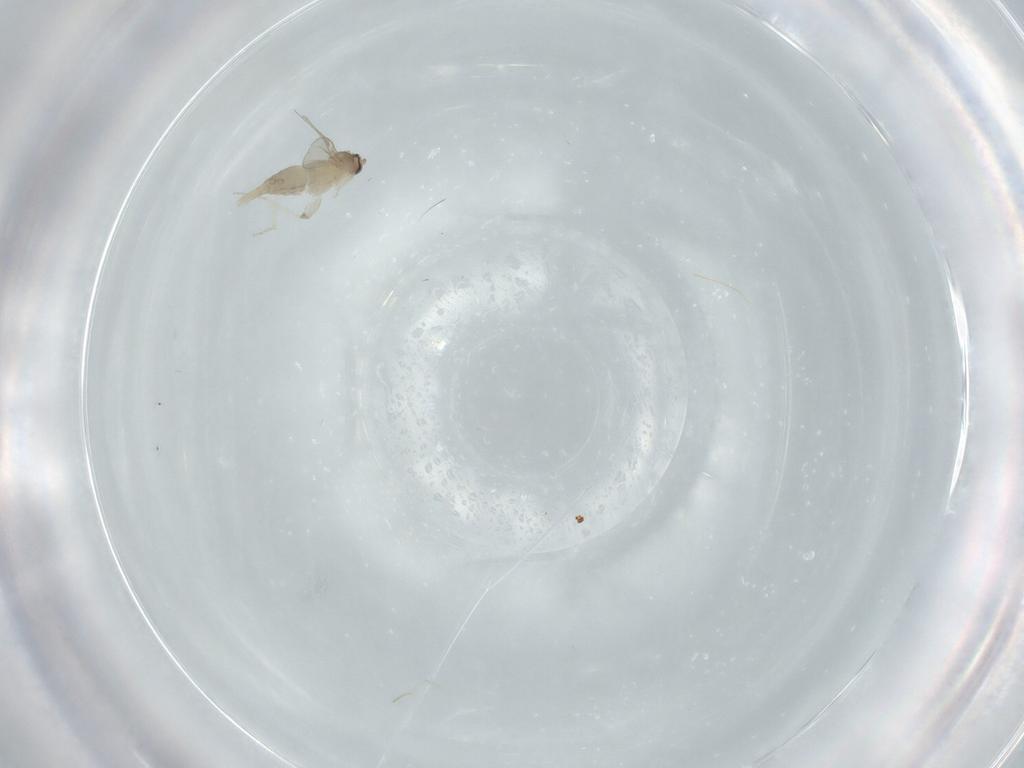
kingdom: Animalia
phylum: Arthropoda
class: Insecta
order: Diptera
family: Cecidomyiidae
